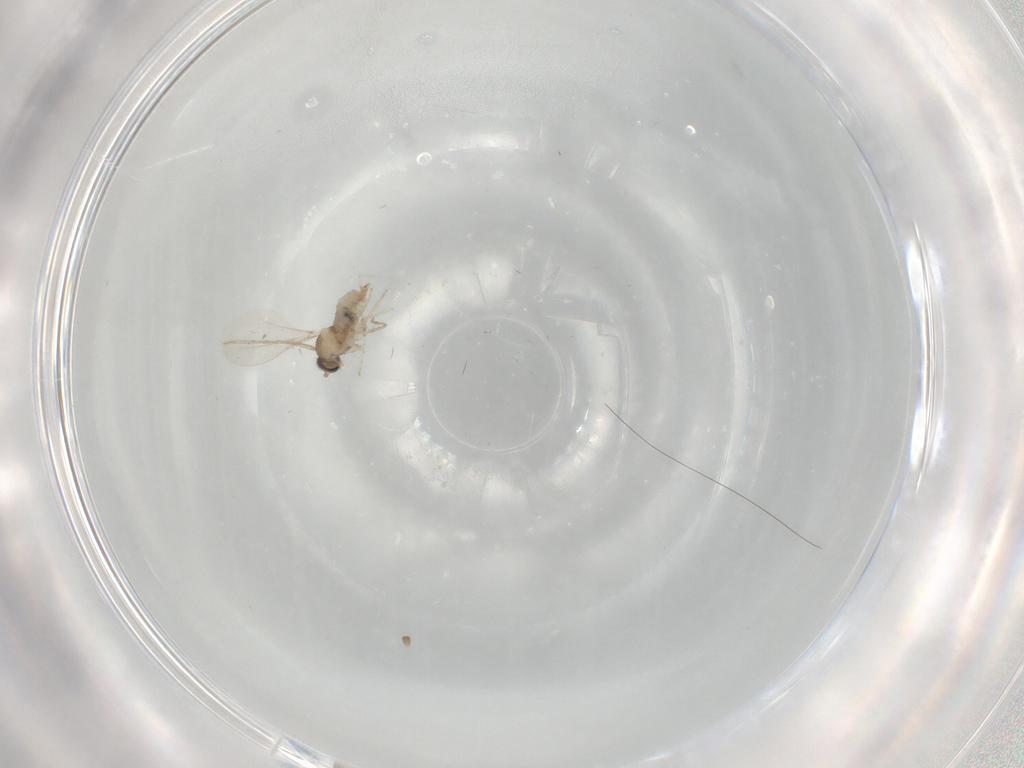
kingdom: Animalia
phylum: Arthropoda
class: Insecta
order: Diptera
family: Cecidomyiidae
